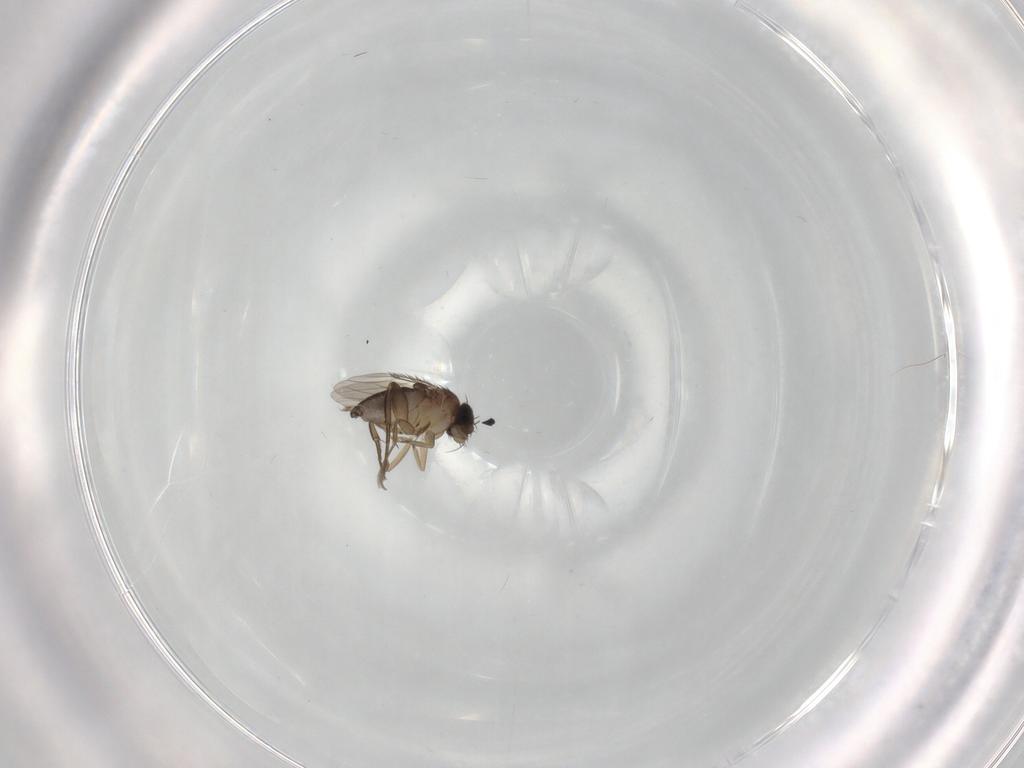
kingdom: Animalia
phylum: Arthropoda
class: Insecta
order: Diptera
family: Phoridae
